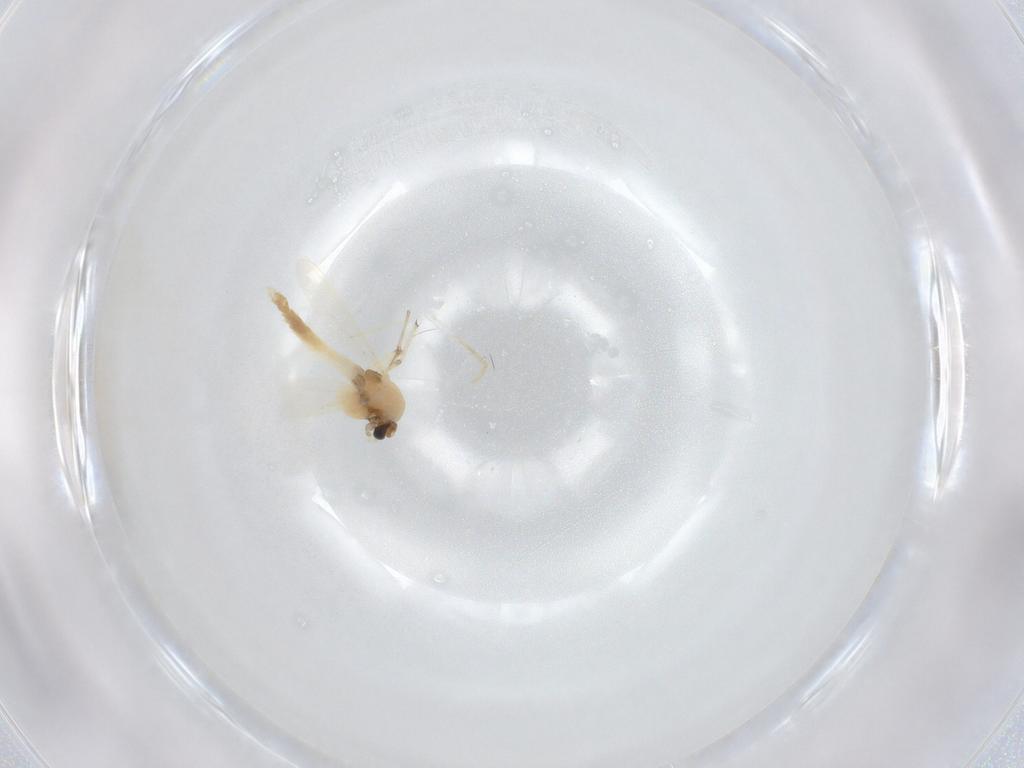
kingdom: Animalia
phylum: Arthropoda
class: Insecta
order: Diptera
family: Chironomidae
